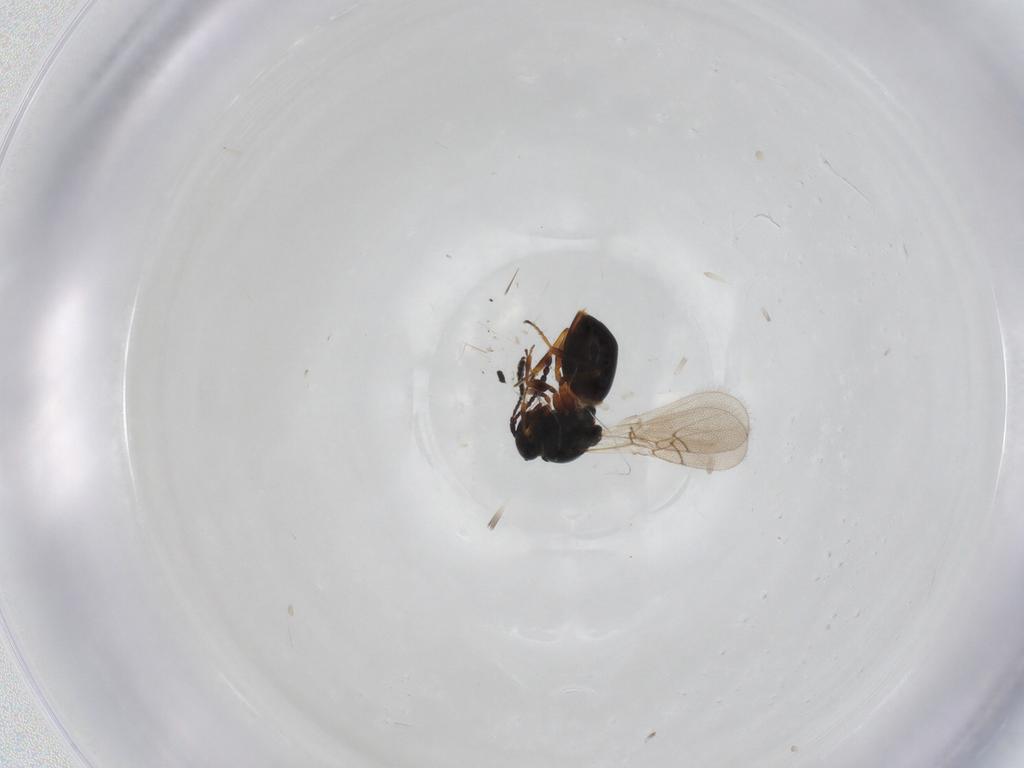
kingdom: Animalia
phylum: Arthropoda
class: Insecta
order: Hymenoptera
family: Figitidae
